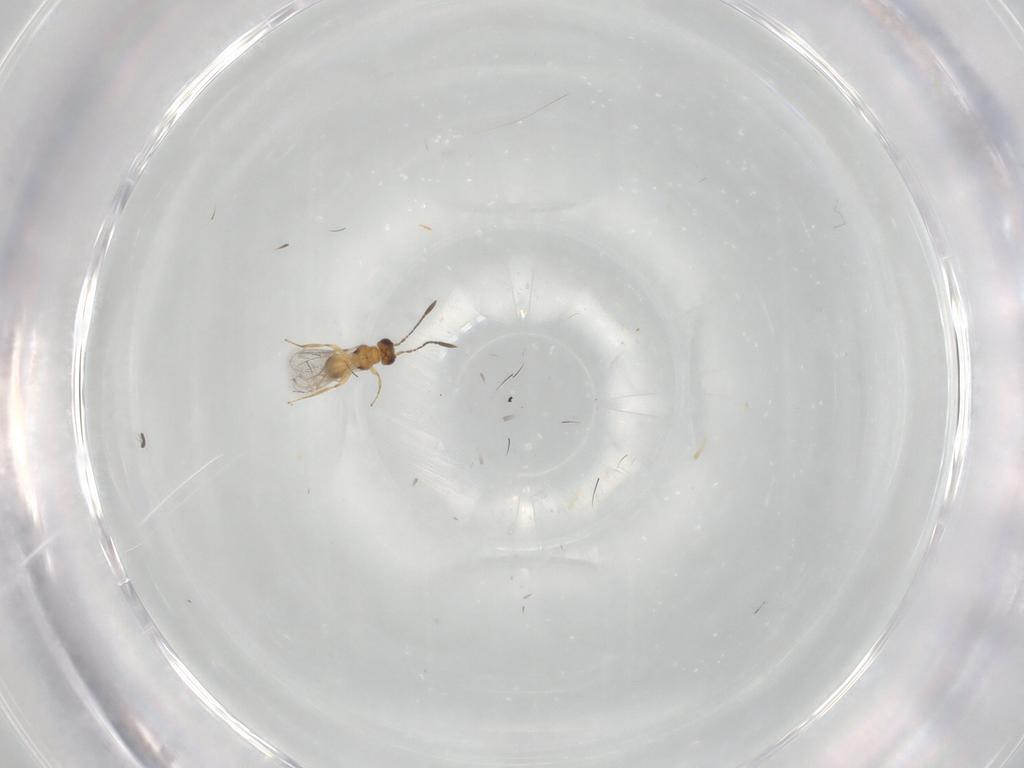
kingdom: Animalia
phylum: Arthropoda
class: Insecta
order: Hymenoptera
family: Mymaridae
